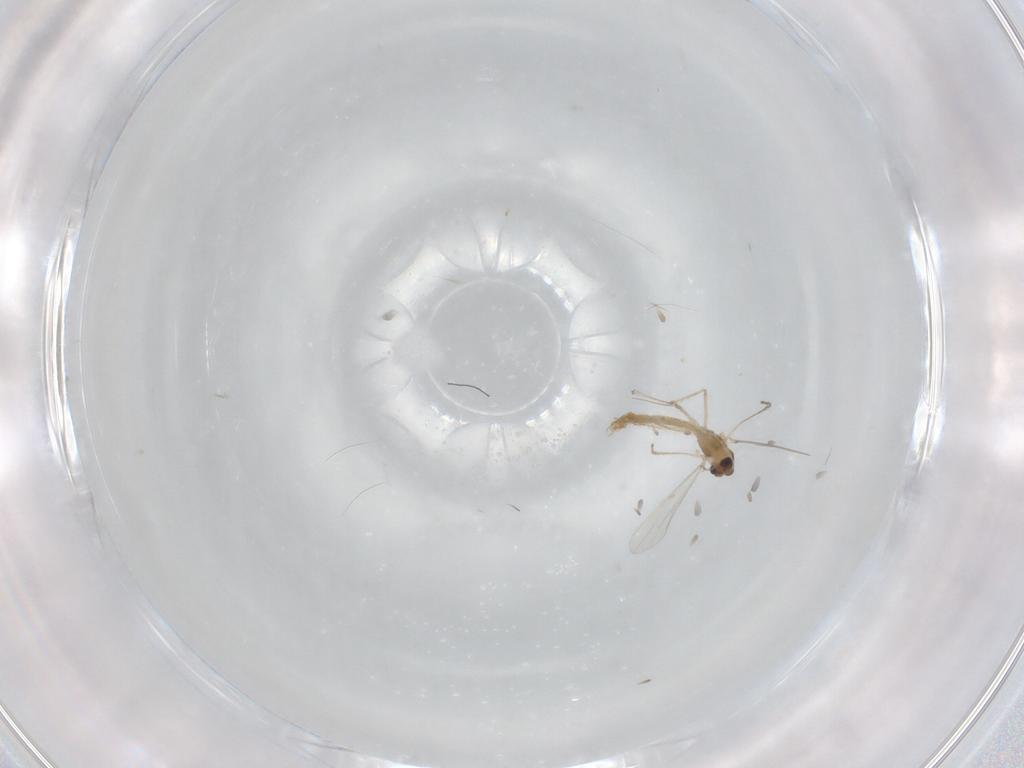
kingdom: Animalia
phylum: Arthropoda
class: Insecta
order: Diptera
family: Chironomidae
